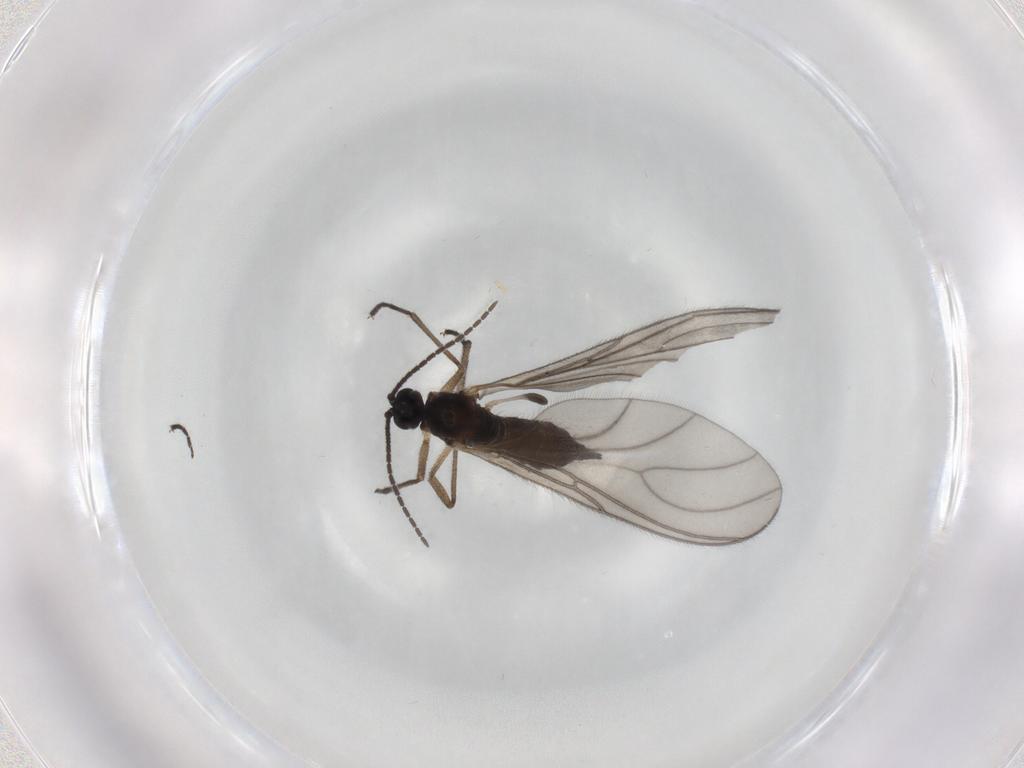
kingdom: Animalia
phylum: Arthropoda
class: Insecta
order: Diptera
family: Sciaridae
